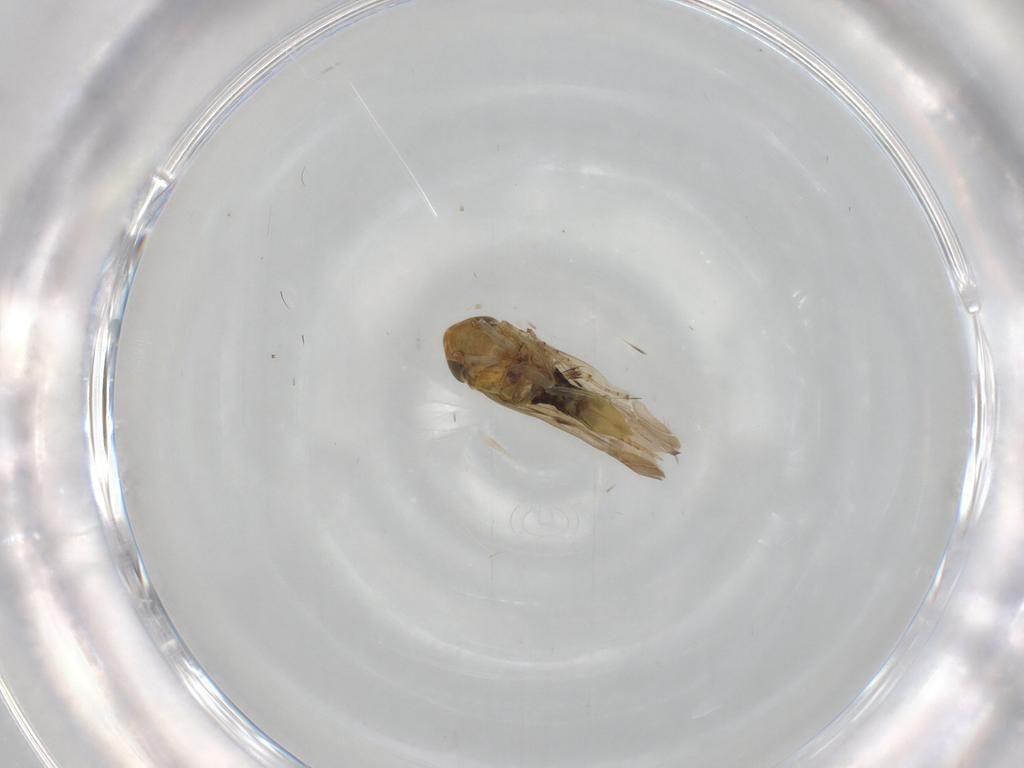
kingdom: Animalia
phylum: Arthropoda
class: Insecta
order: Hemiptera
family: Cicadellidae
